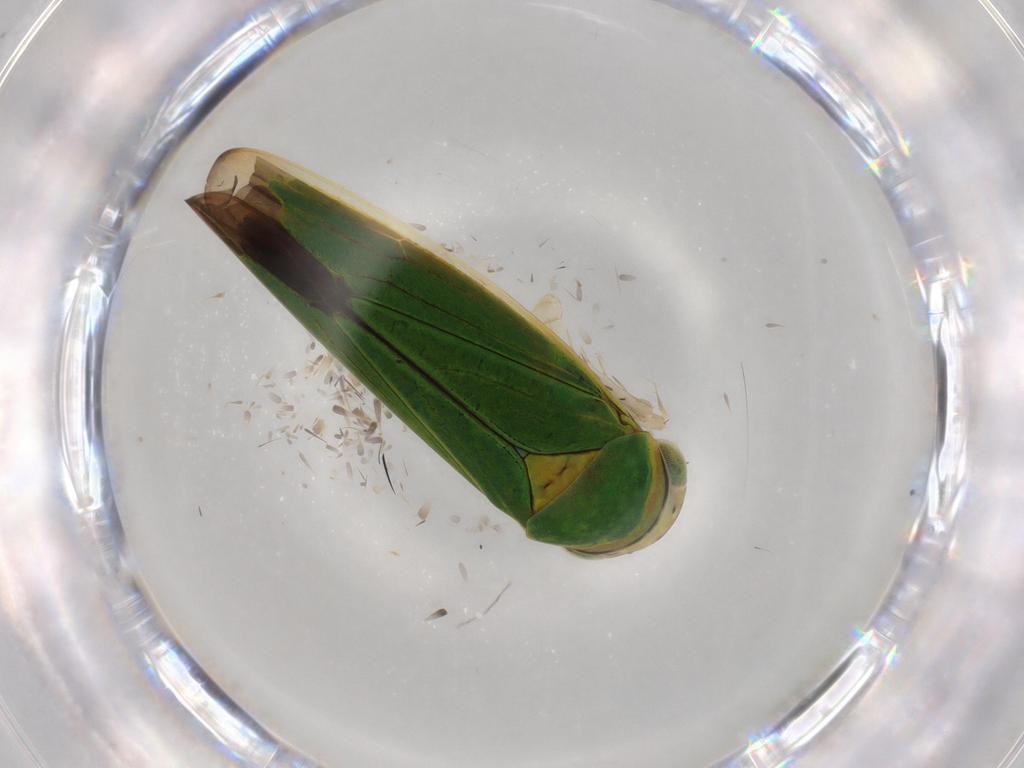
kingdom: Animalia
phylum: Arthropoda
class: Insecta
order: Hemiptera
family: Cicadellidae
